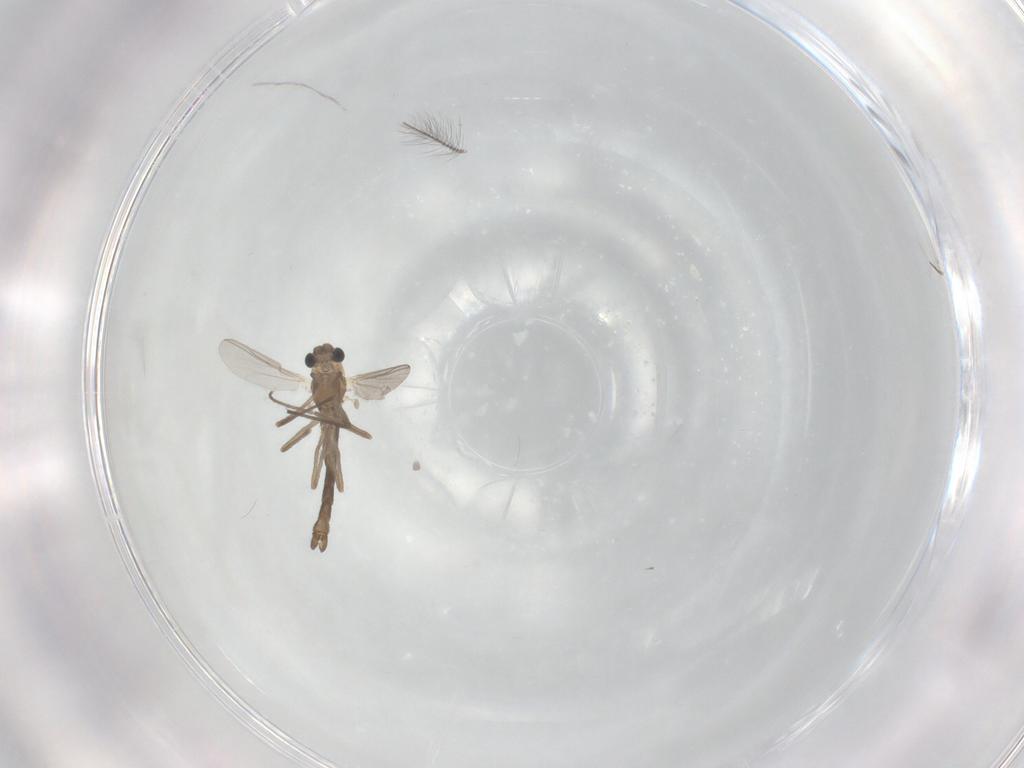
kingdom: Animalia
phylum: Arthropoda
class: Insecta
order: Diptera
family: Chironomidae
